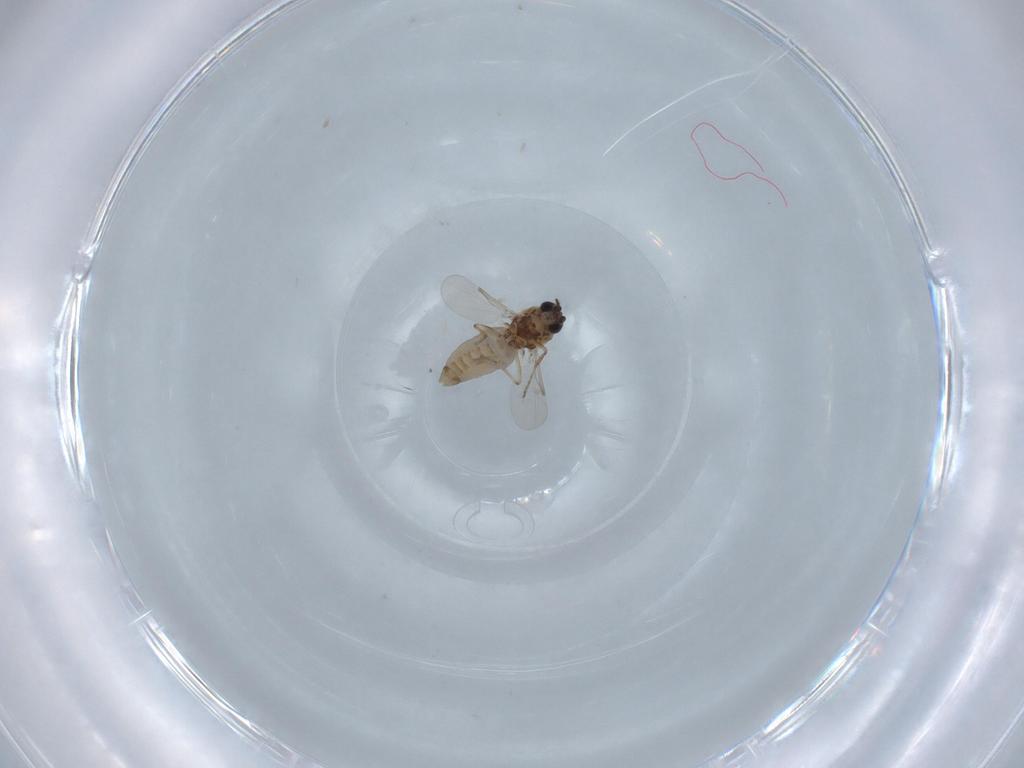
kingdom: Animalia
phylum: Arthropoda
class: Insecta
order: Diptera
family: Ceratopogonidae
